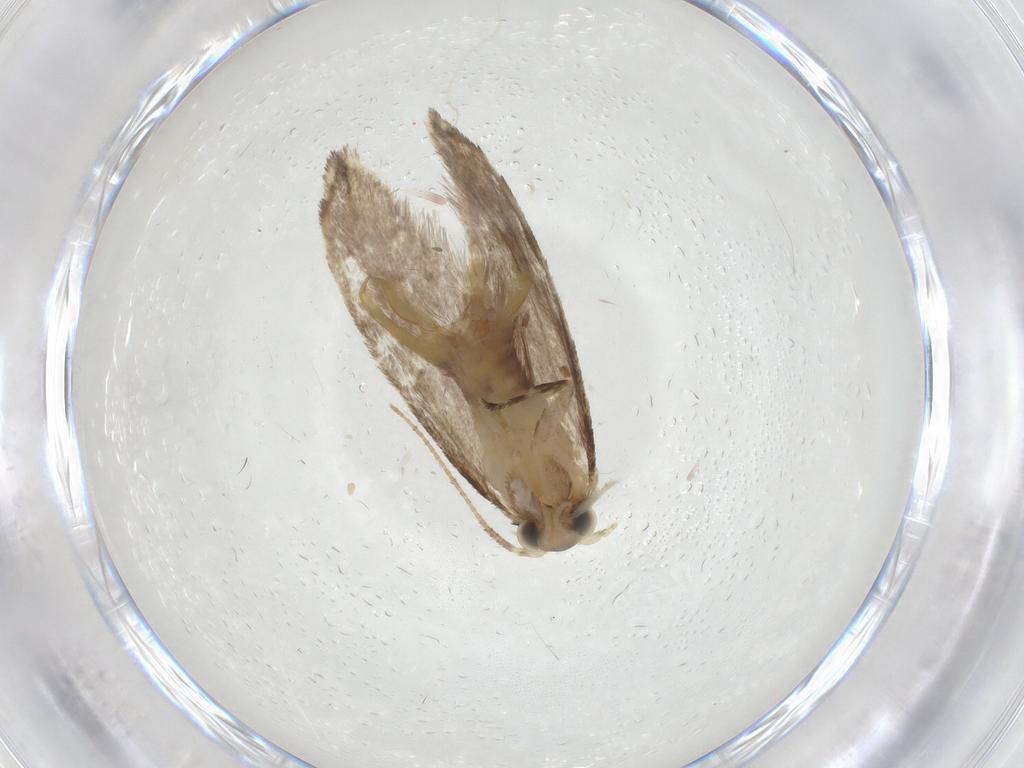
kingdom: Animalia
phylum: Arthropoda
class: Insecta
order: Lepidoptera
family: Tineidae
